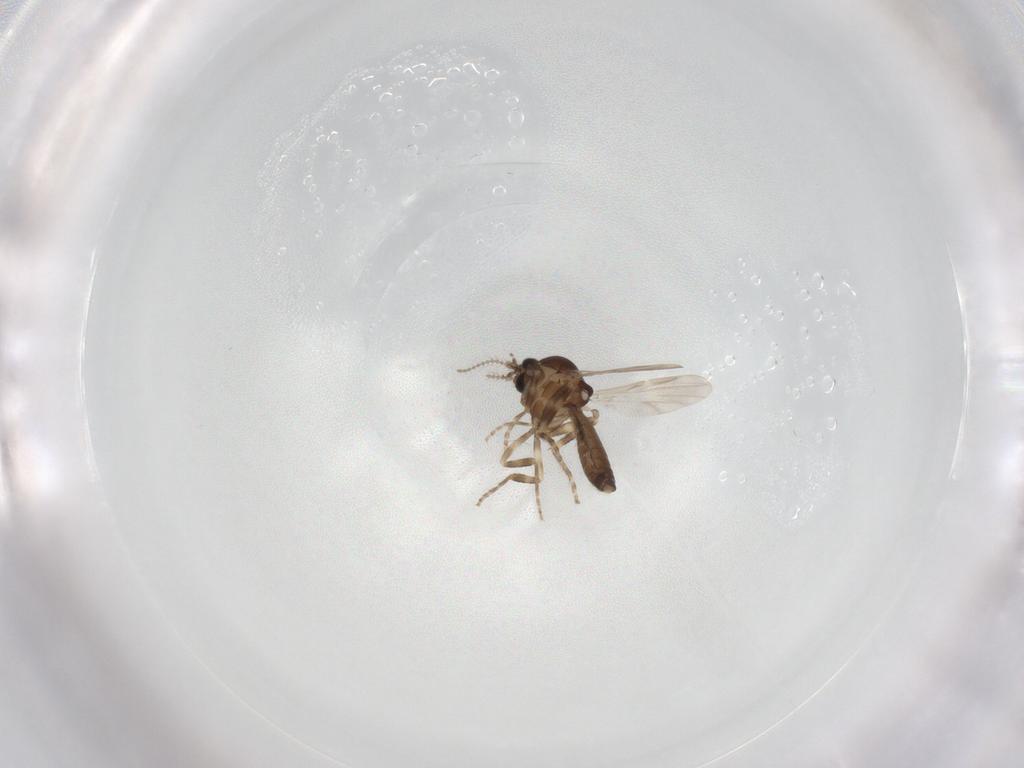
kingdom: Animalia
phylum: Arthropoda
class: Insecta
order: Diptera
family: Ceratopogonidae
